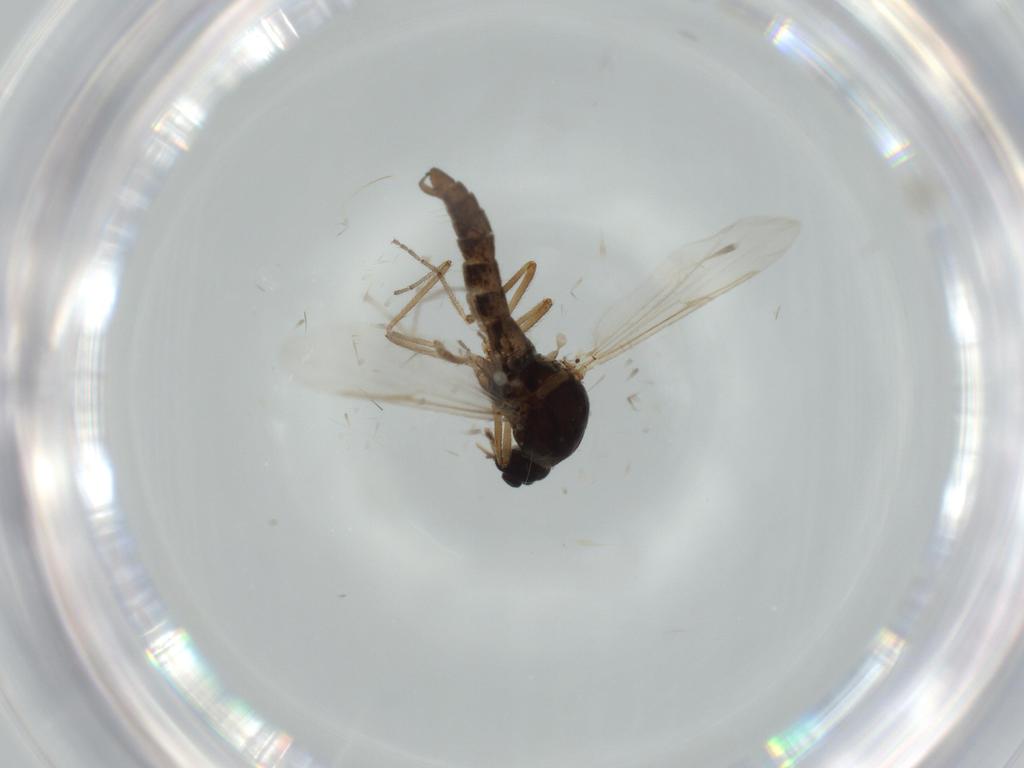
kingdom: Animalia
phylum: Arthropoda
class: Insecta
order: Diptera
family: Ceratopogonidae
